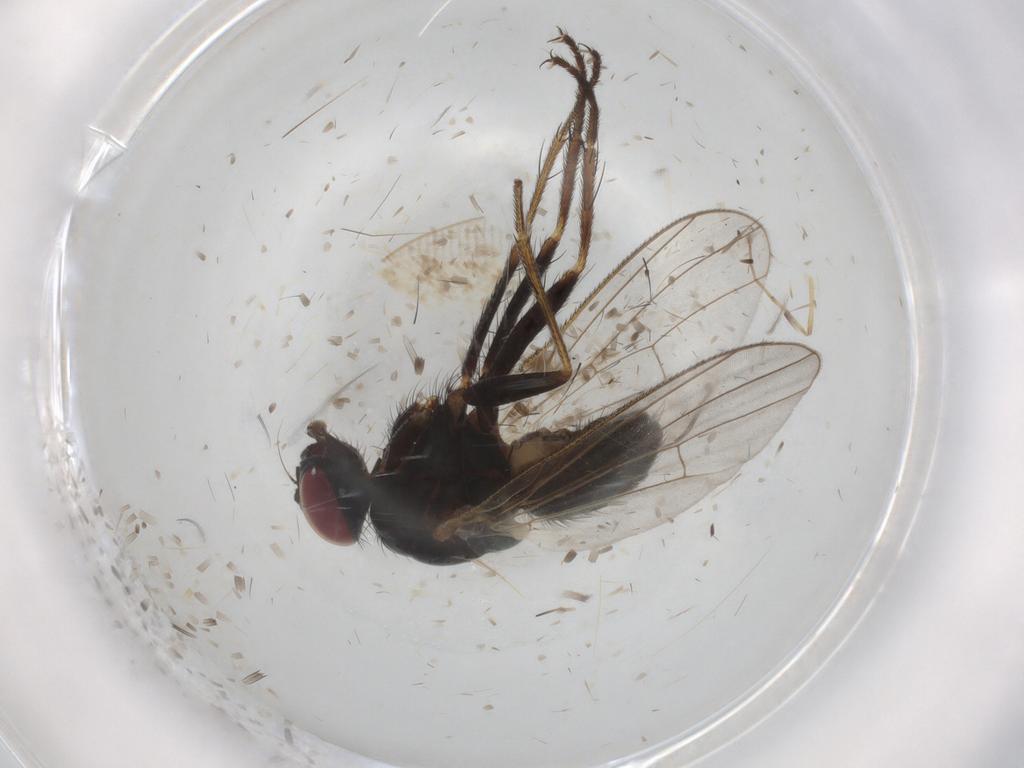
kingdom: Animalia
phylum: Arthropoda
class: Insecta
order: Diptera
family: Muscidae
